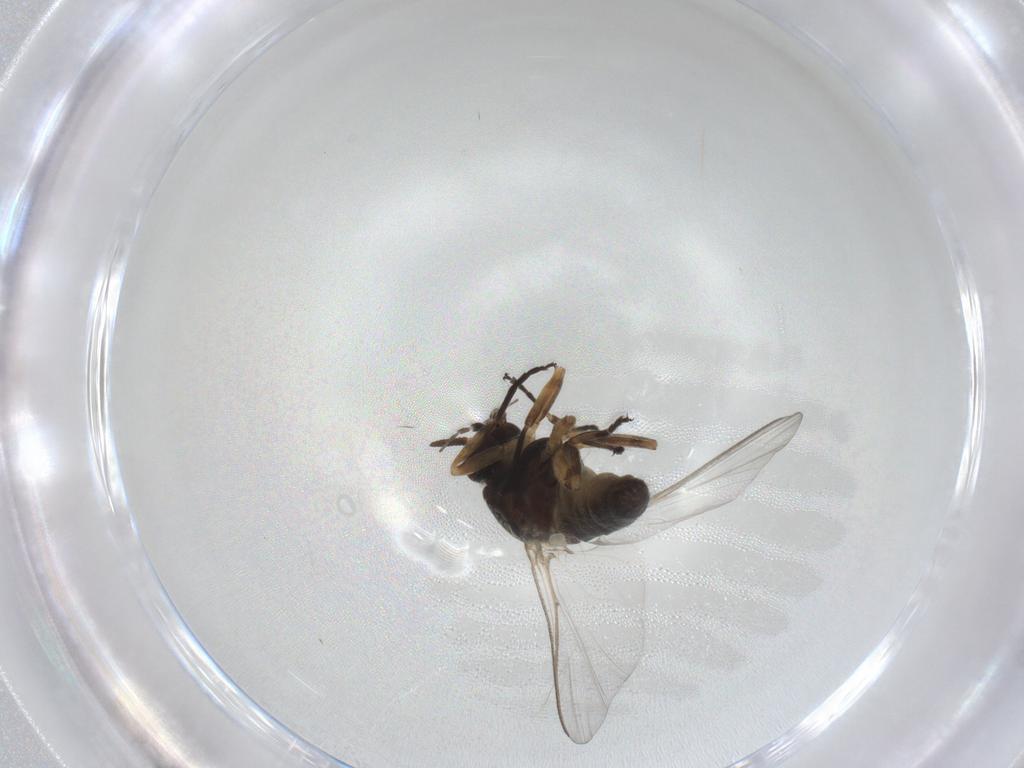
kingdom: Animalia
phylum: Arthropoda
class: Insecta
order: Diptera
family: Simuliidae
